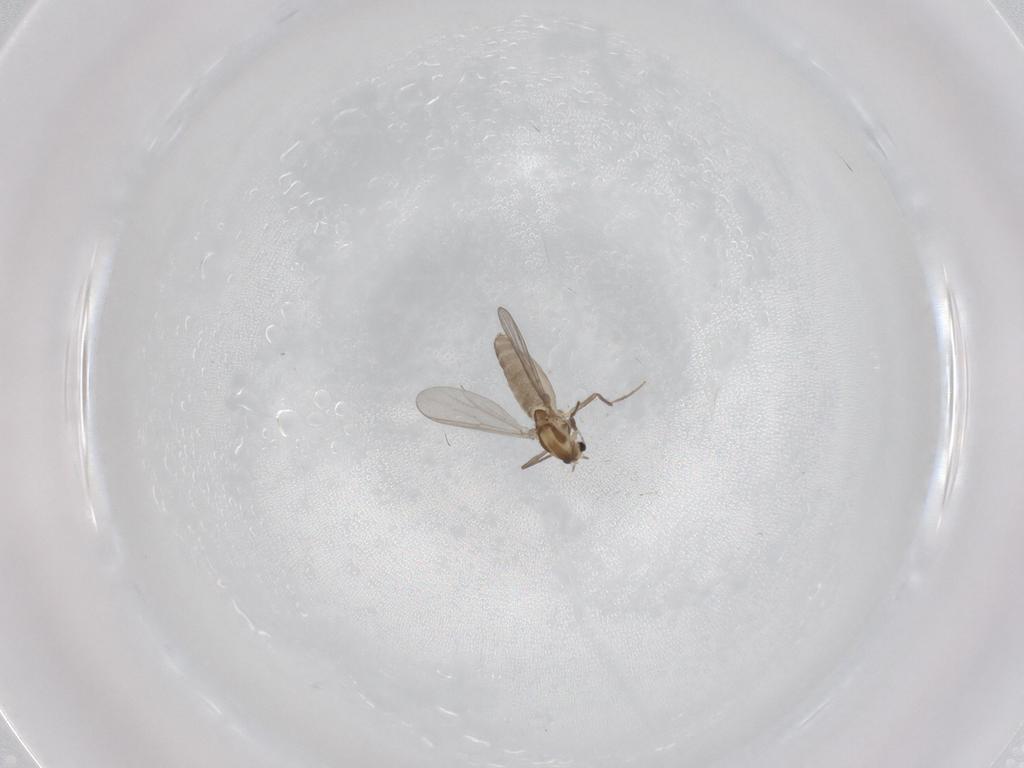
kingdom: Animalia
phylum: Arthropoda
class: Insecta
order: Diptera
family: Chironomidae
